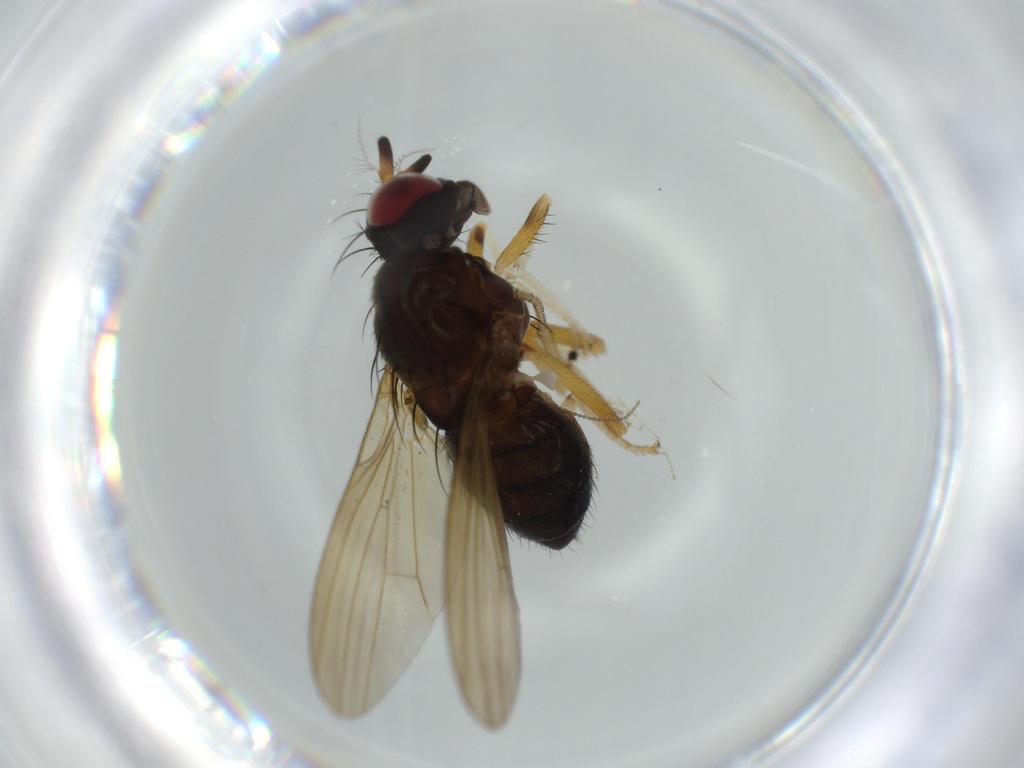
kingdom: Animalia
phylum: Arthropoda
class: Insecta
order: Diptera
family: Cecidomyiidae
